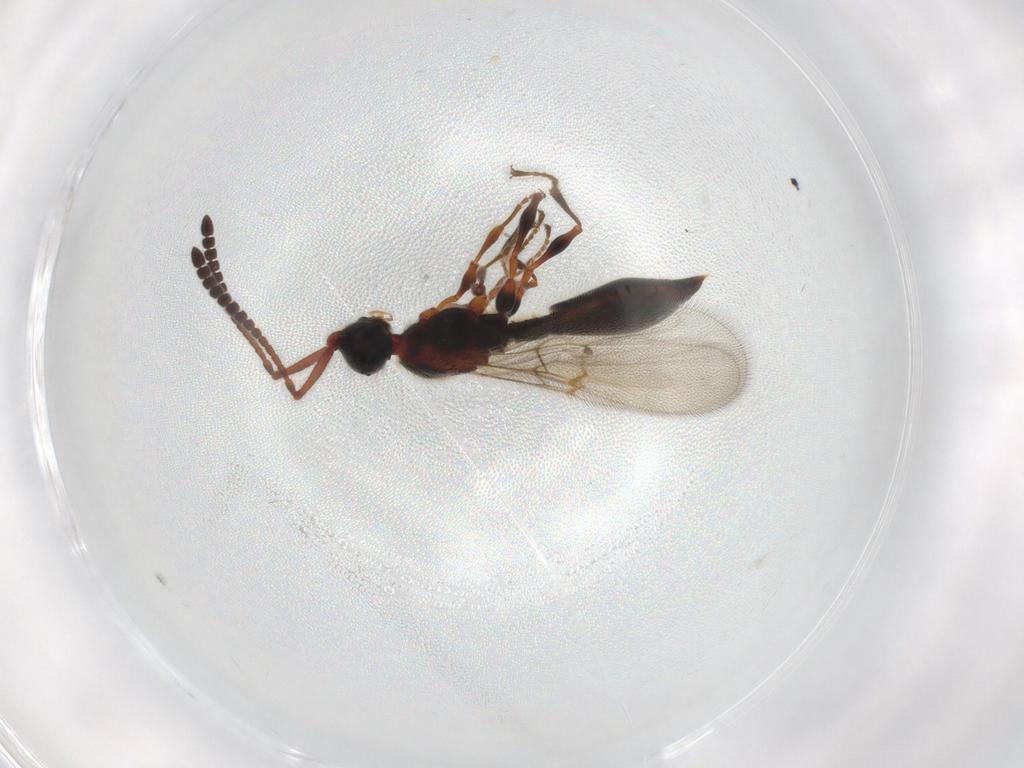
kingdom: Animalia
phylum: Arthropoda
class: Insecta
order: Hymenoptera
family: Diapriidae
